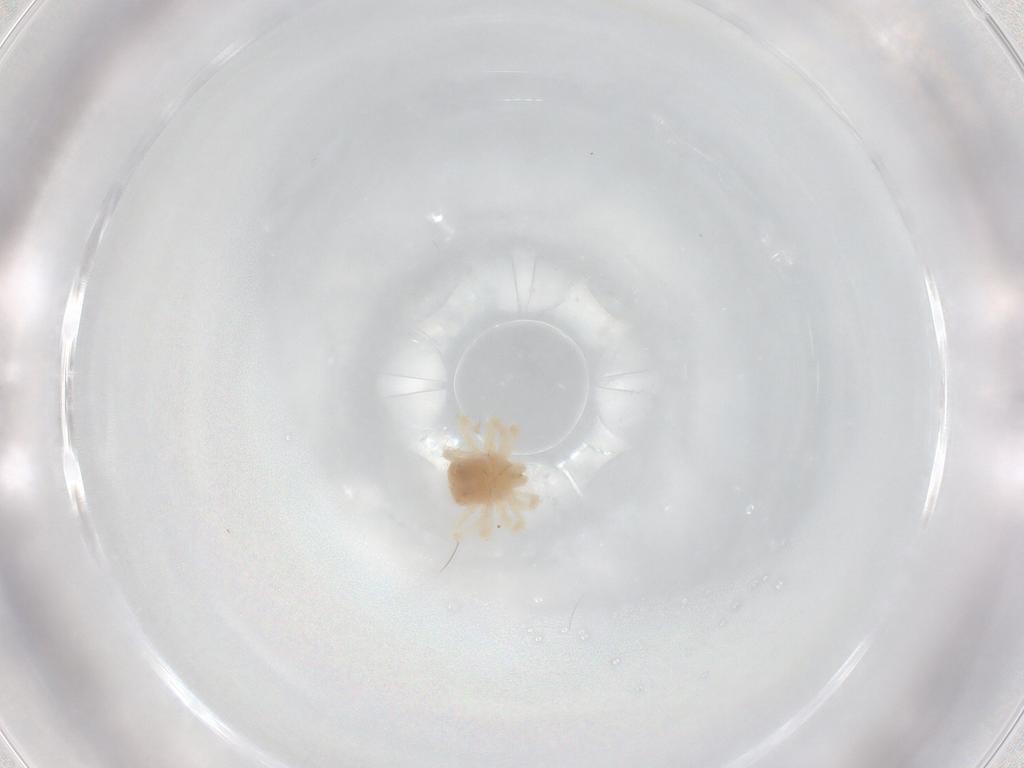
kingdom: Animalia
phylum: Arthropoda
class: Arachnida
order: Trombidiformes
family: Anystidae
